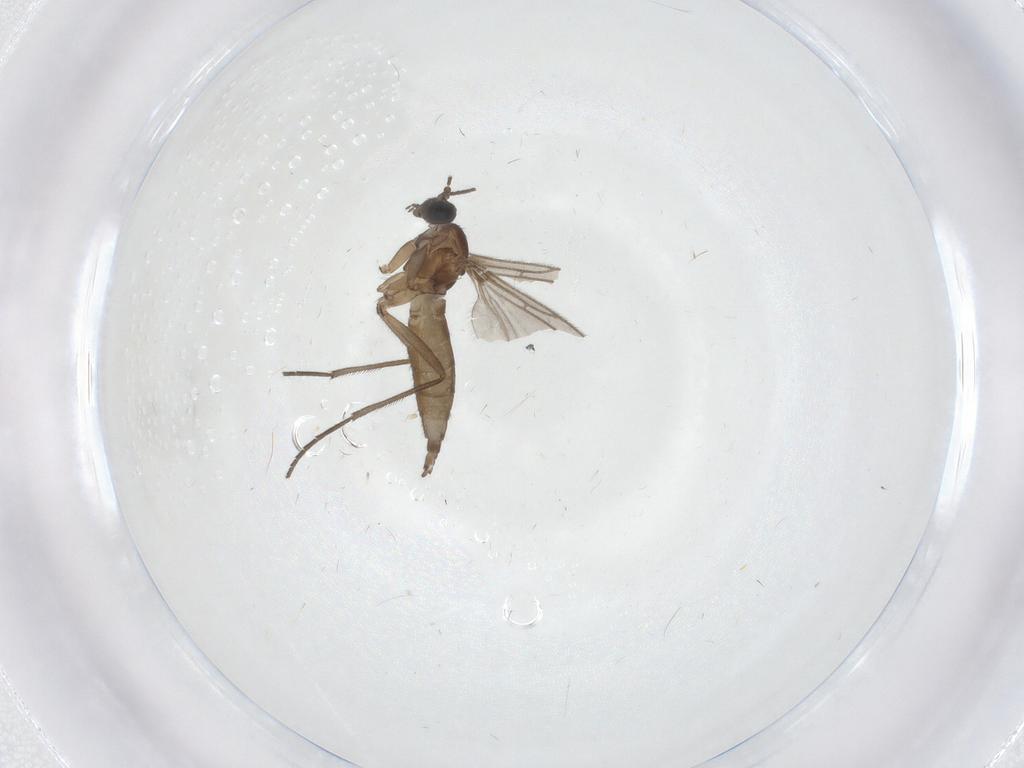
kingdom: Animalia
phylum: Arthropoda
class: Insecta
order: Diptera
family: Sciaridae
